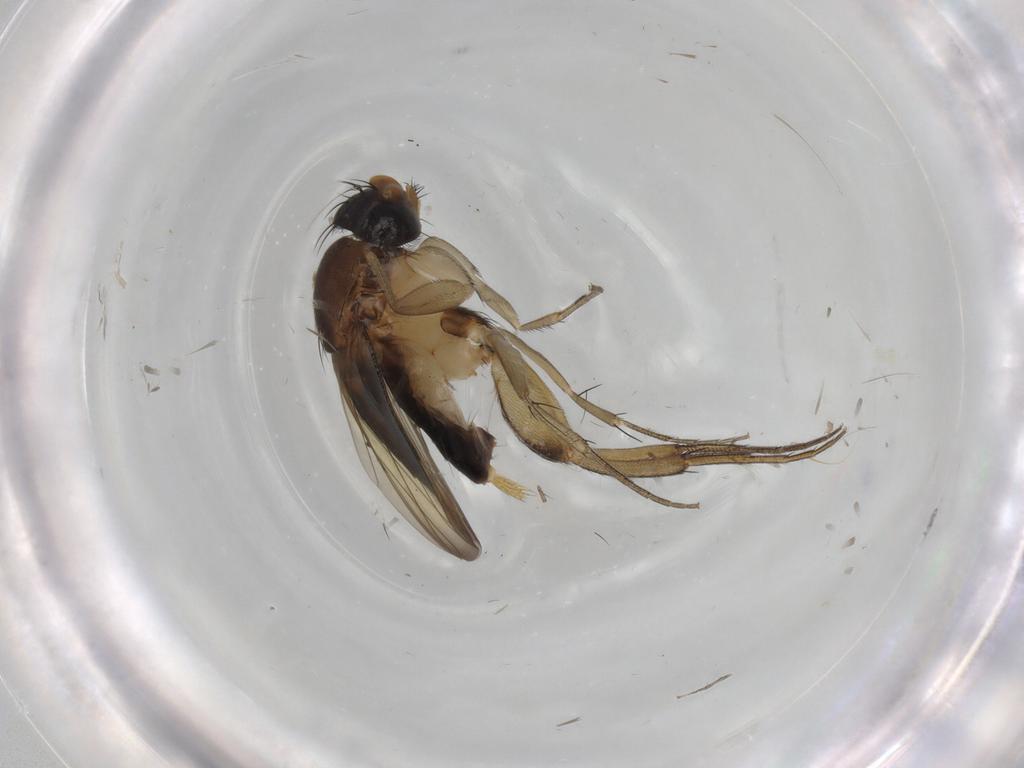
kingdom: Animalia
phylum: Arthropoda
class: Insecta
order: Diptera
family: Phoridae
